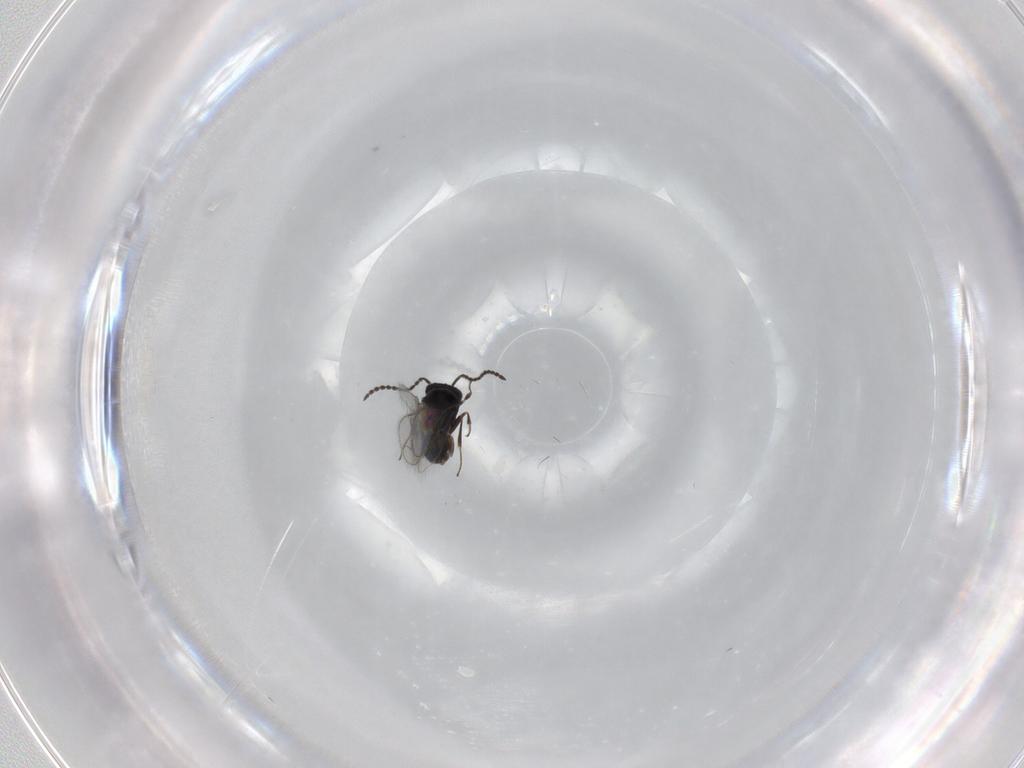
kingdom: Animalia
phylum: Arthropoda
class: Insecta
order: Hymenoptera
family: Scelionidae
